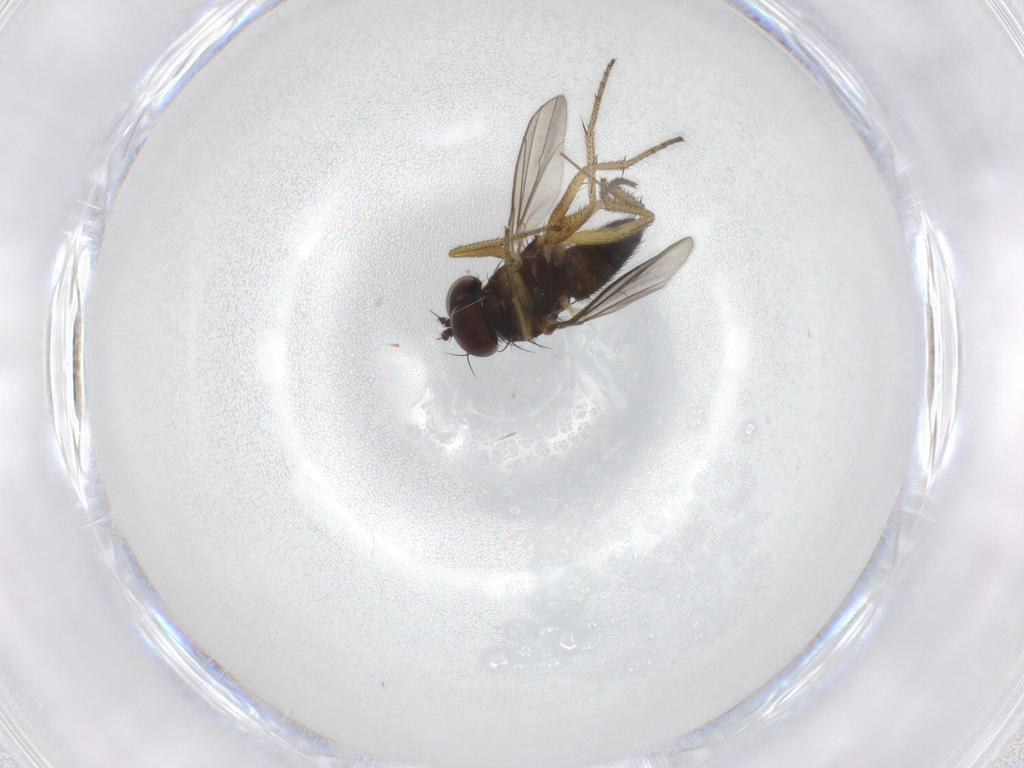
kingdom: Animalia
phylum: Arthropoda
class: Insecta
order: Diptera
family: Dolichopodidae
